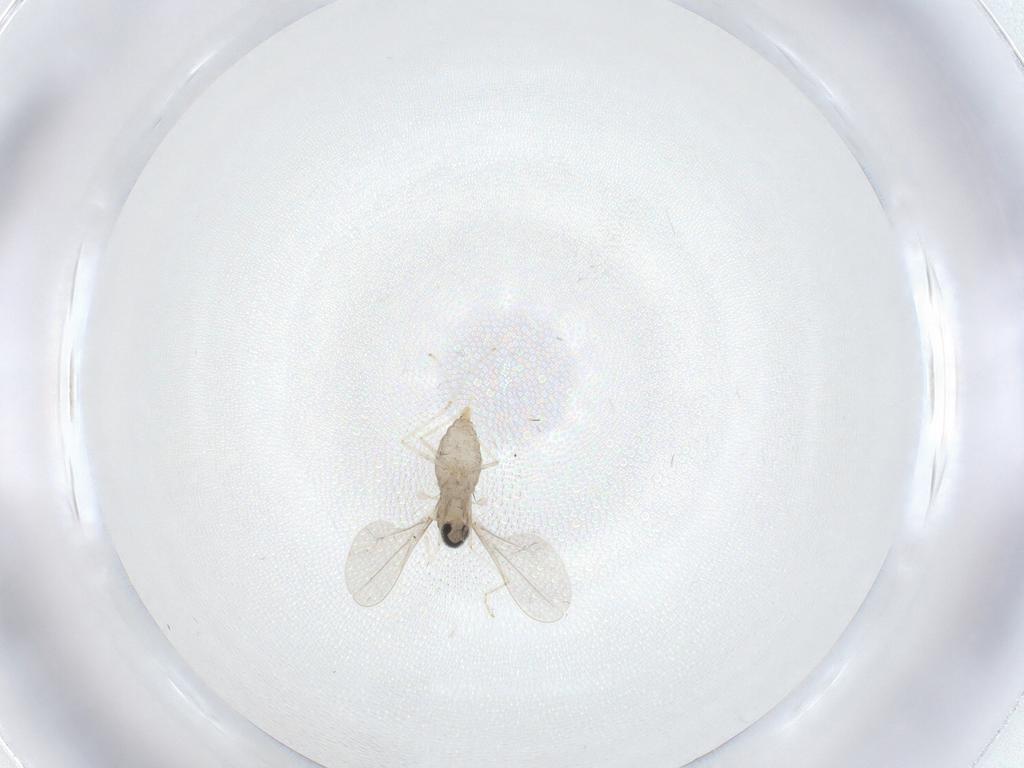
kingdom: Animalia
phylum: Arthropoda
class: Insecta
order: Diptera
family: Cecidomyiidae
